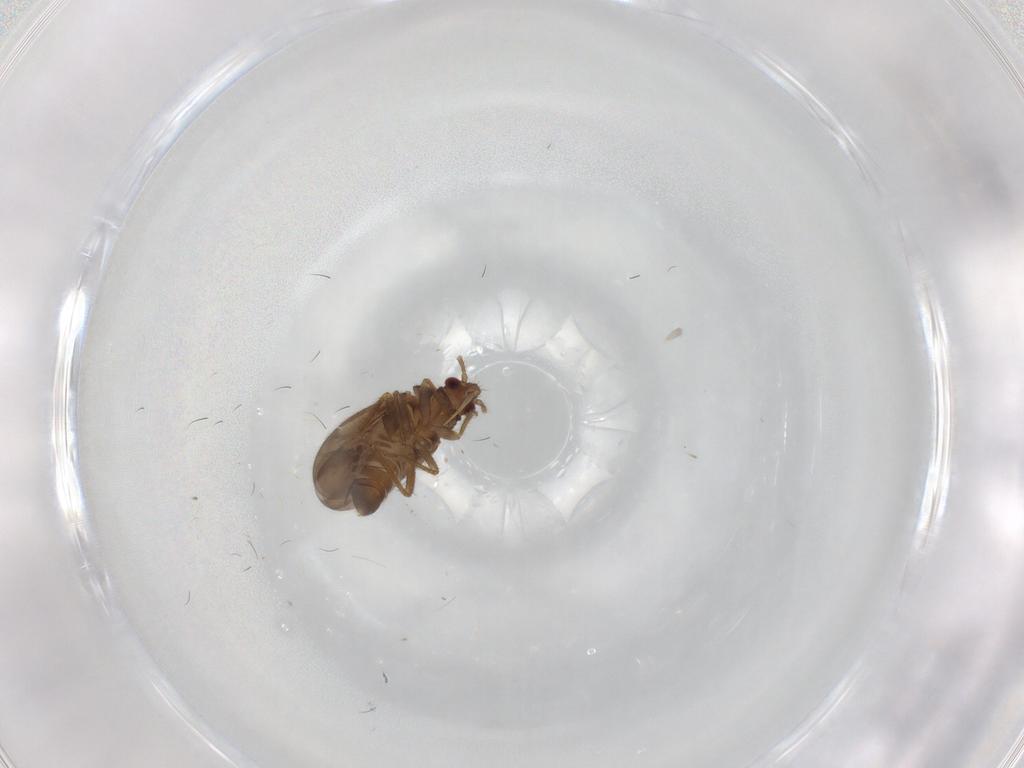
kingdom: Animalia
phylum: Arthropoda
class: Insecta
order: Hemiptera
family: Ceratocombidae
